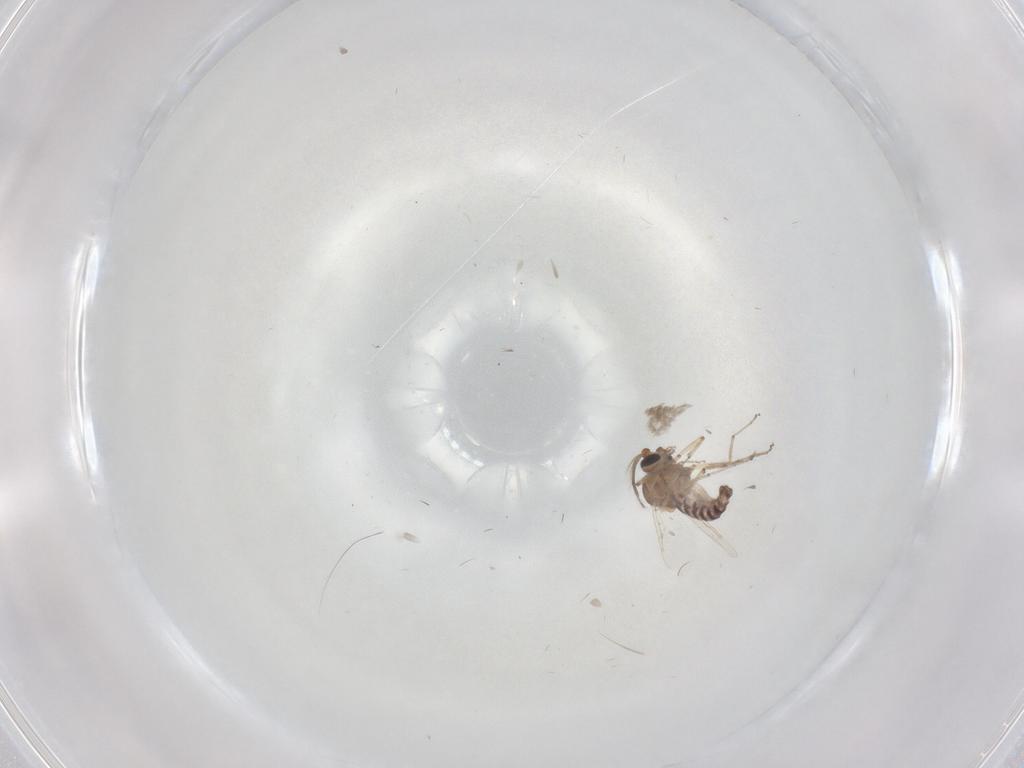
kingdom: Animalia
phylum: Arthropoda
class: Insecta
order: Diptera
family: Ceratopogonidae
